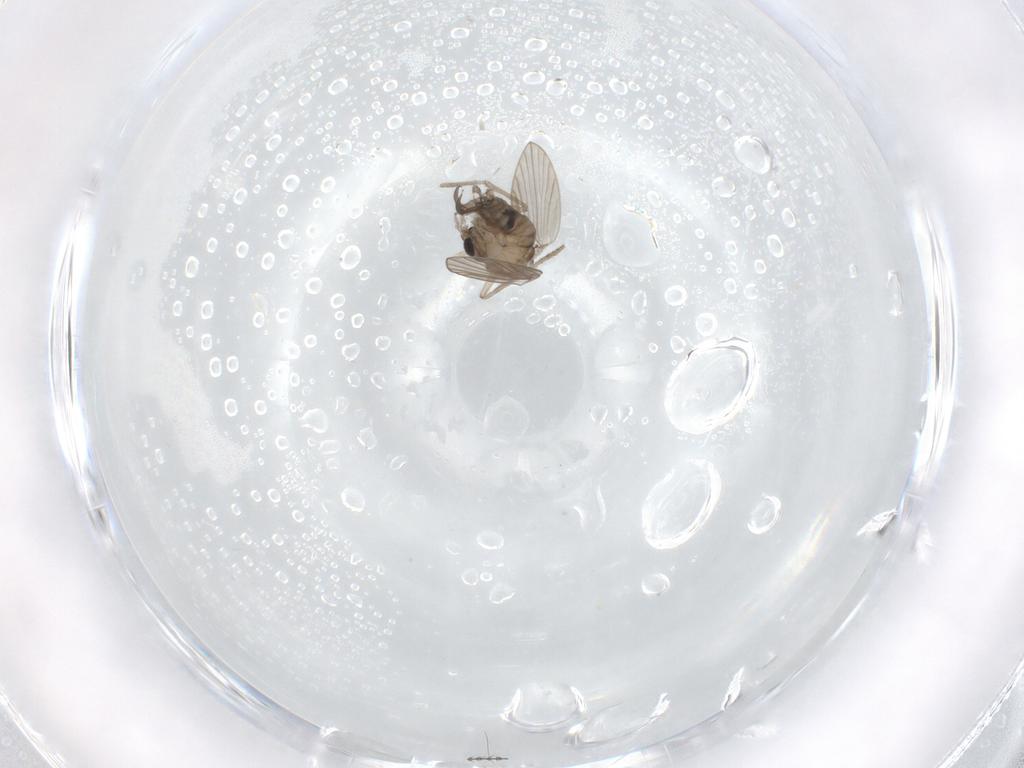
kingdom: Animalia
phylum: Arthropoda
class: Insecta
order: Diptera
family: Psychodidae
